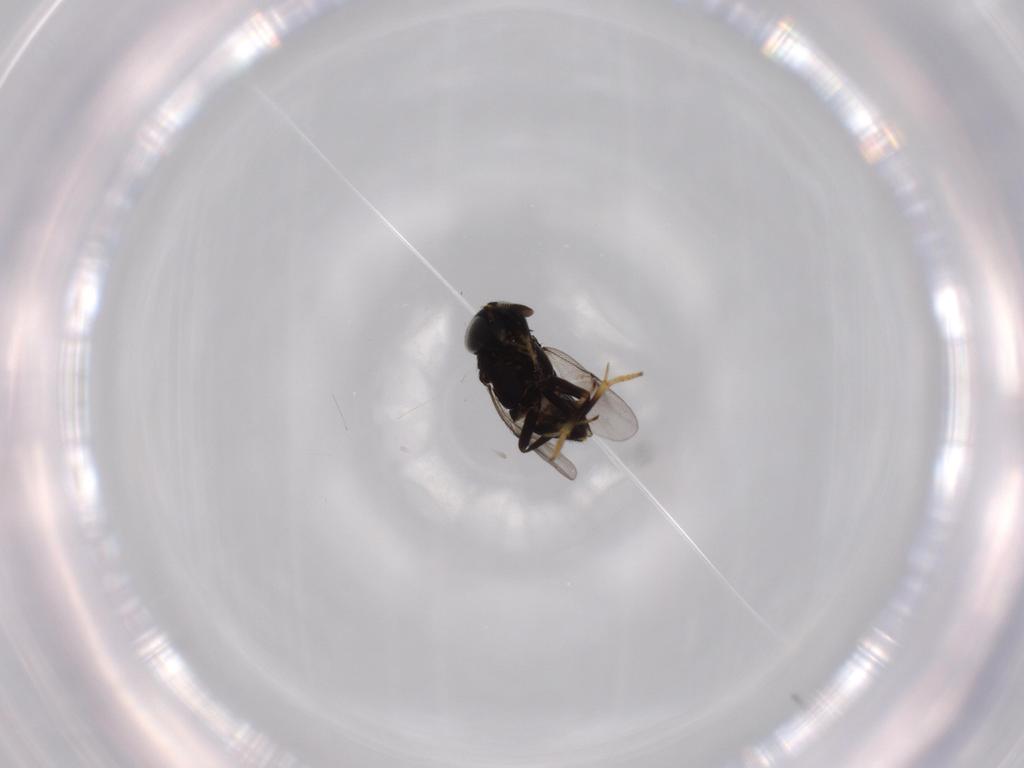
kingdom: Animalia
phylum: Arthropoda
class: Insecta
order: Diptera
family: Cecidomyiidae
